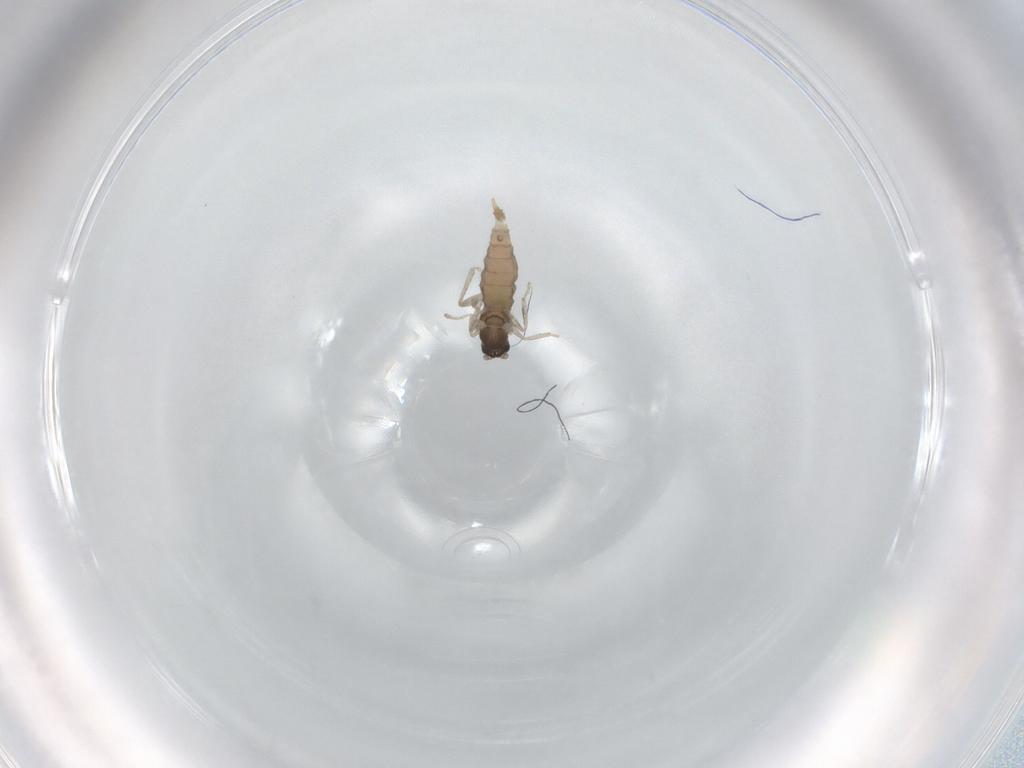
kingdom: Animalia
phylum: Arthropoda
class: Insecta
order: Diptera
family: Cecidomyiidae
